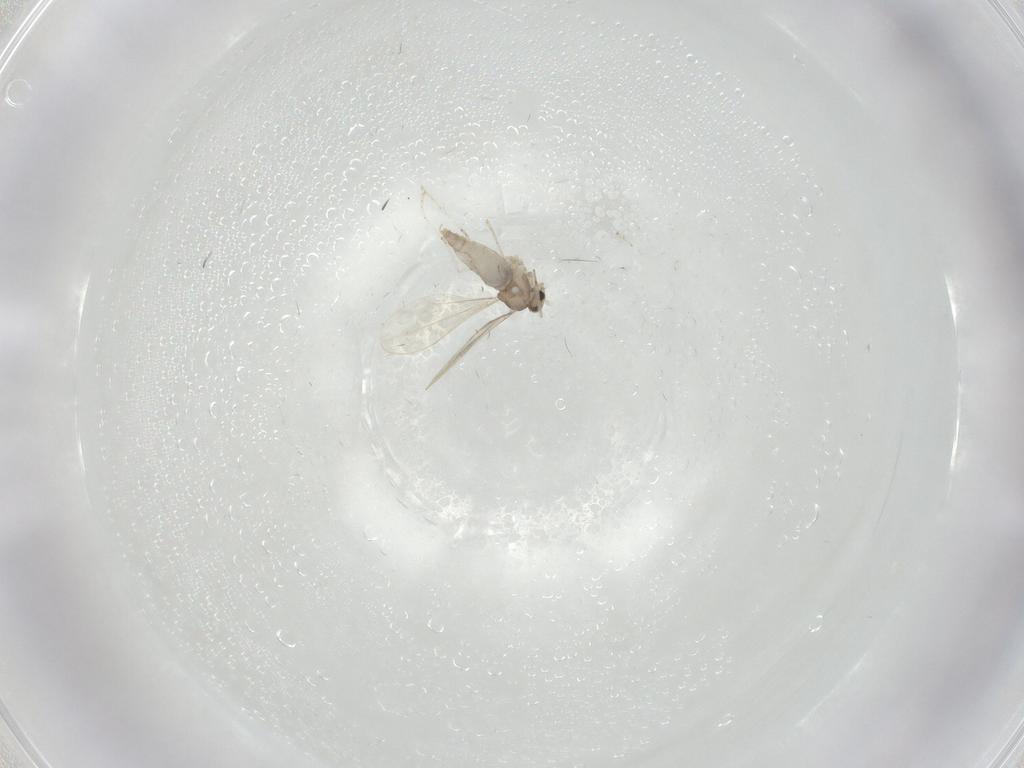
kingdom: Animalia
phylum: Arthropoda
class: Insecta
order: Diptera
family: Cecidomyiidae
